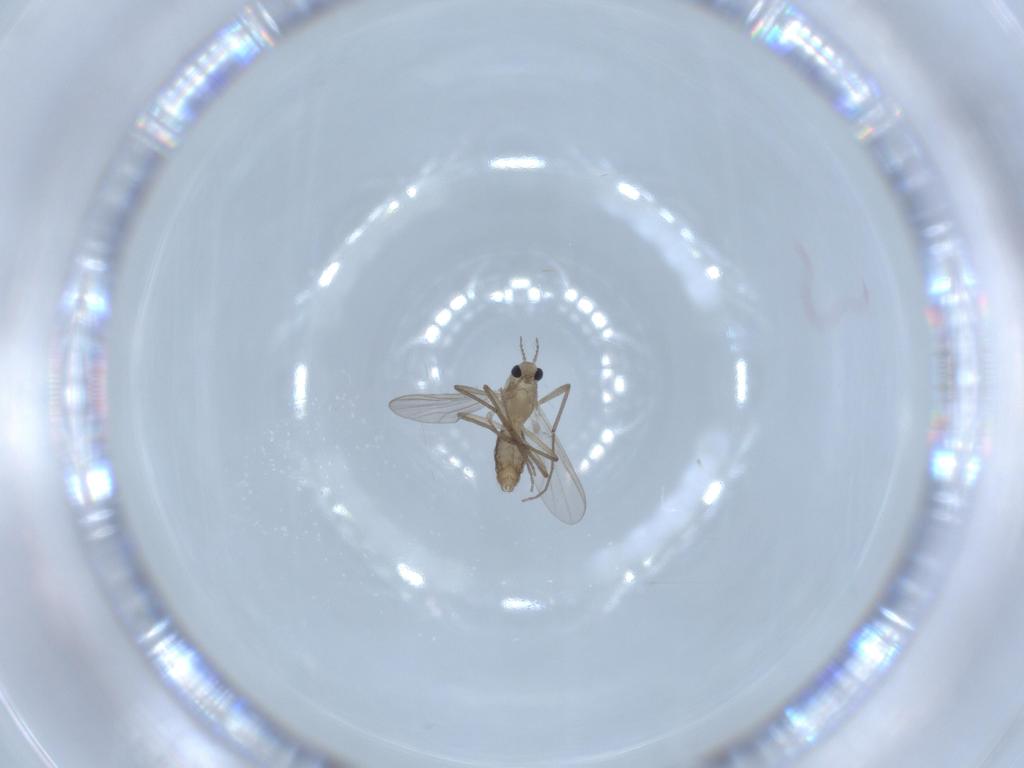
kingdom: Animalia
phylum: Arthropoda
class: Insecta
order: Diptera
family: Chironomidae
